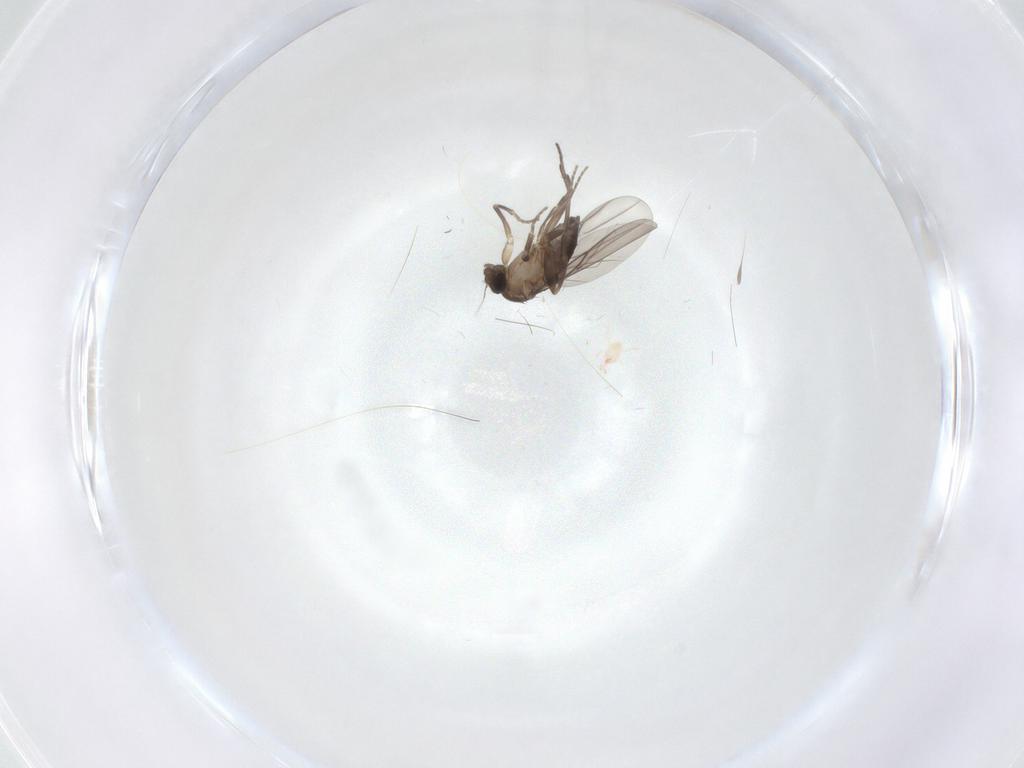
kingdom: Animalia
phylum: Arthropoda
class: Insecta
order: Diptera
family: Phoridae
